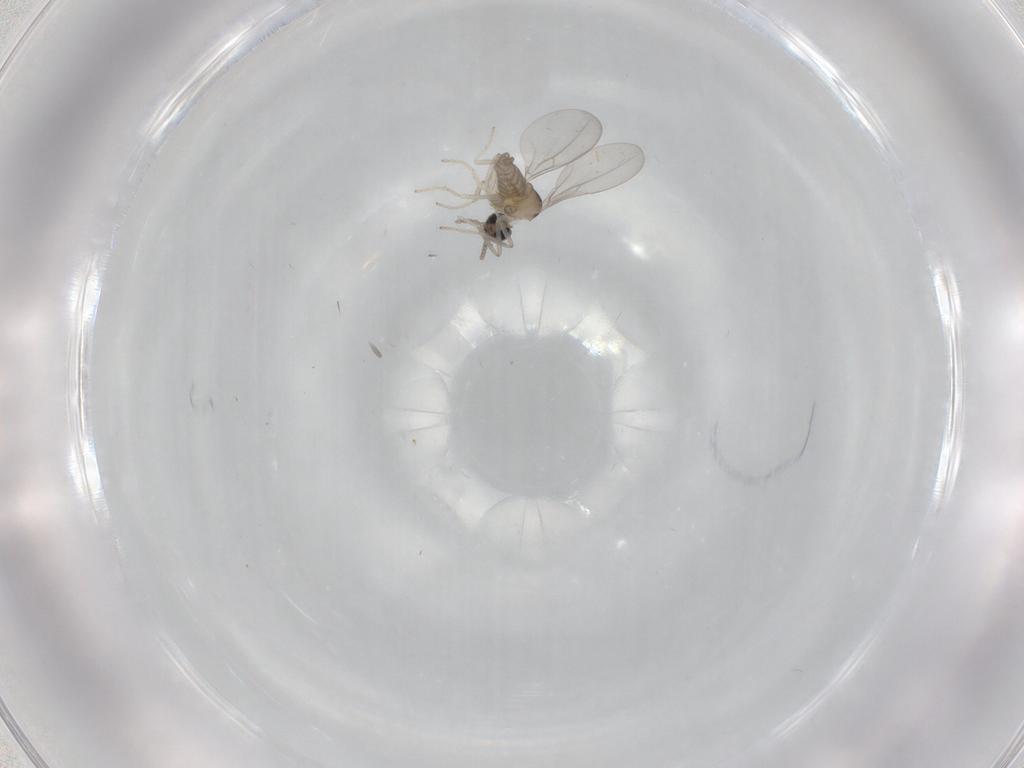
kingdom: Animalia
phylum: Arthropoda
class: Insecta
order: Diptera
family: Cecidomyiidae
